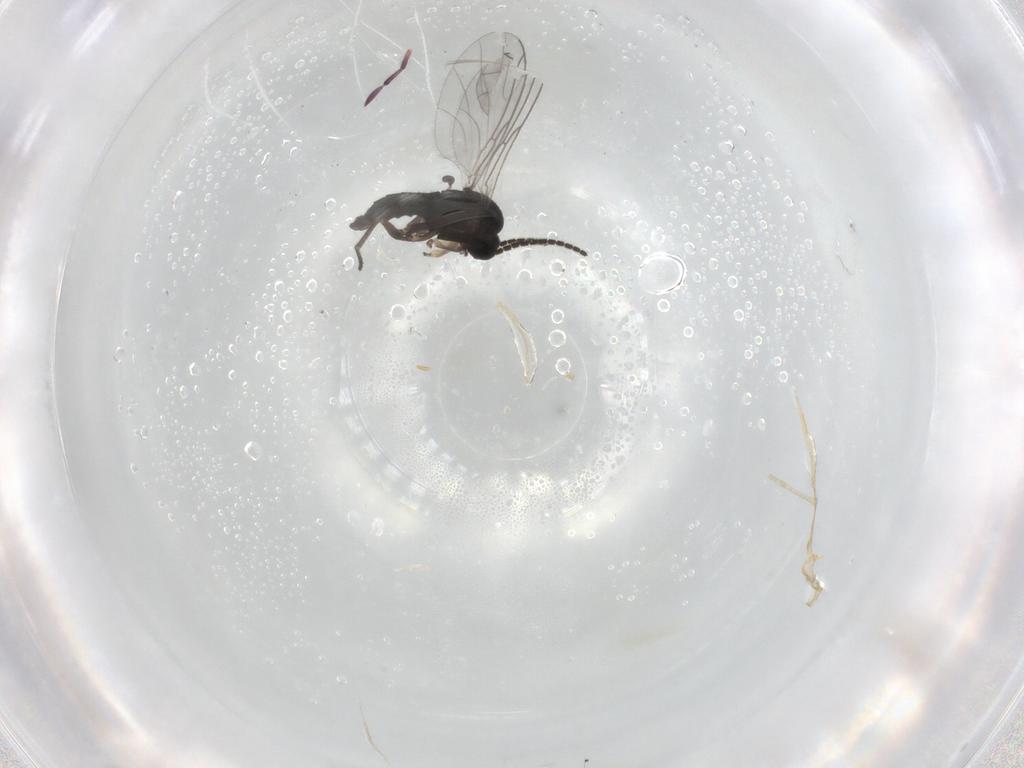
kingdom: Animalia
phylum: Arthropoda
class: Insecta
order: Diptera
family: Sciaridae
